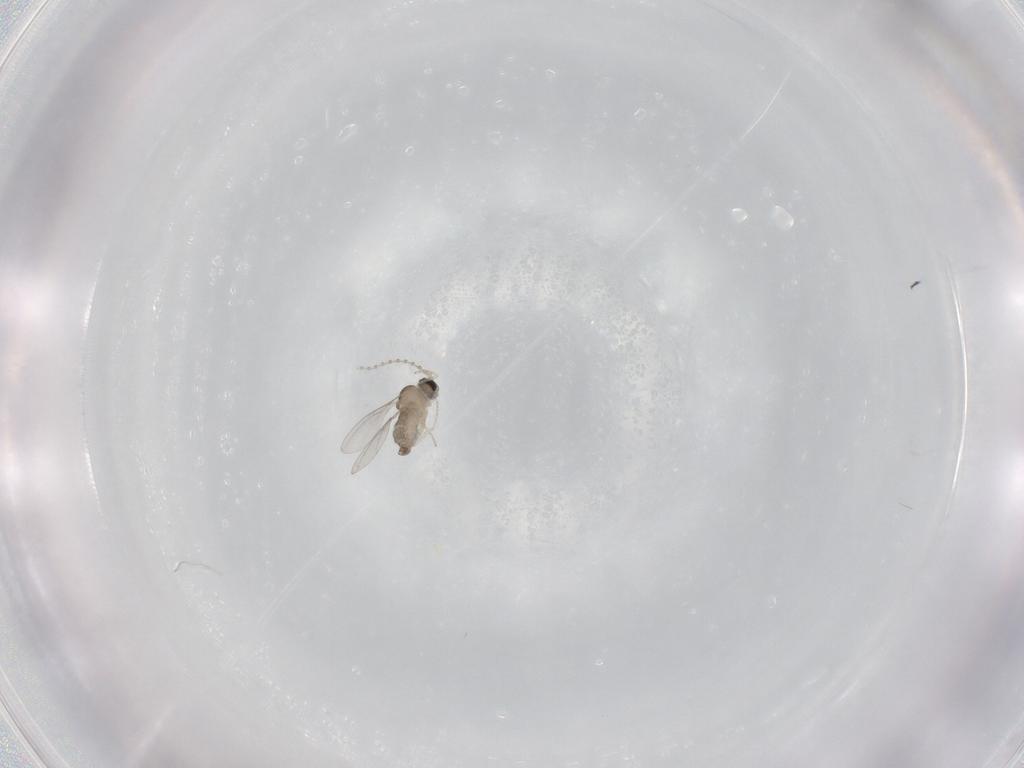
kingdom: Animalia
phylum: Arthropoda
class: Insecta
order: Diptera
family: Cecidomyiidae
